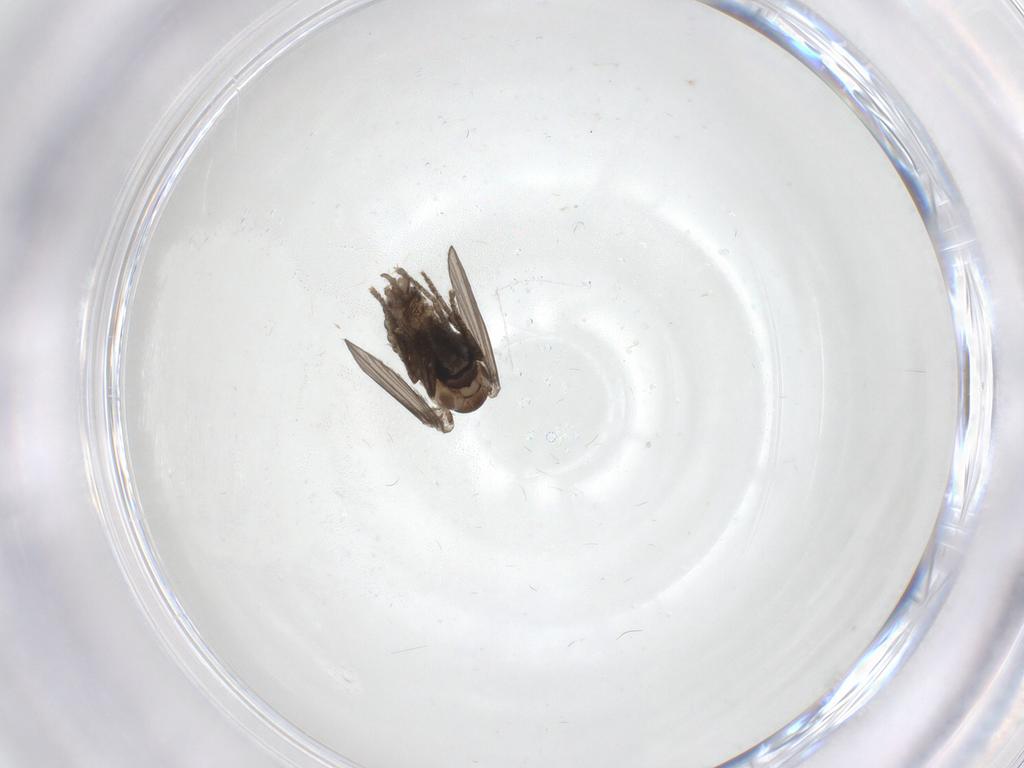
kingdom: Animalia
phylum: Arthropoda
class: Insecta
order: Diptera
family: Psychodidae
